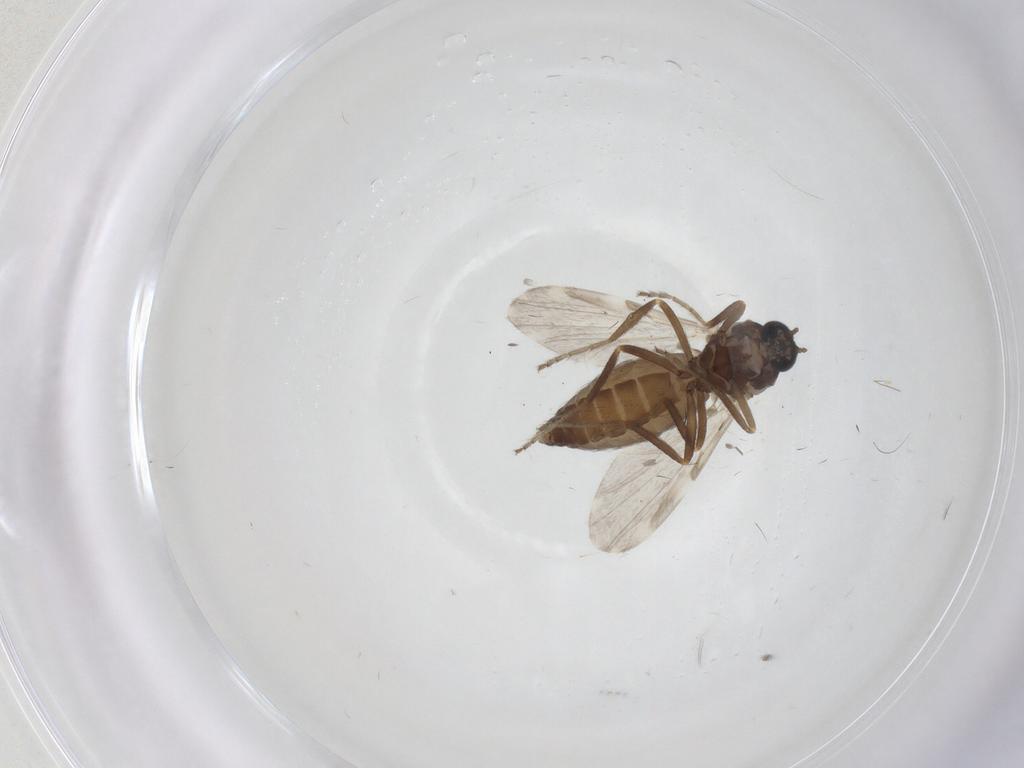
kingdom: Animalia
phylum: Arthropoda
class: Insecta
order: Diptera
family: Ceratopogonidae
